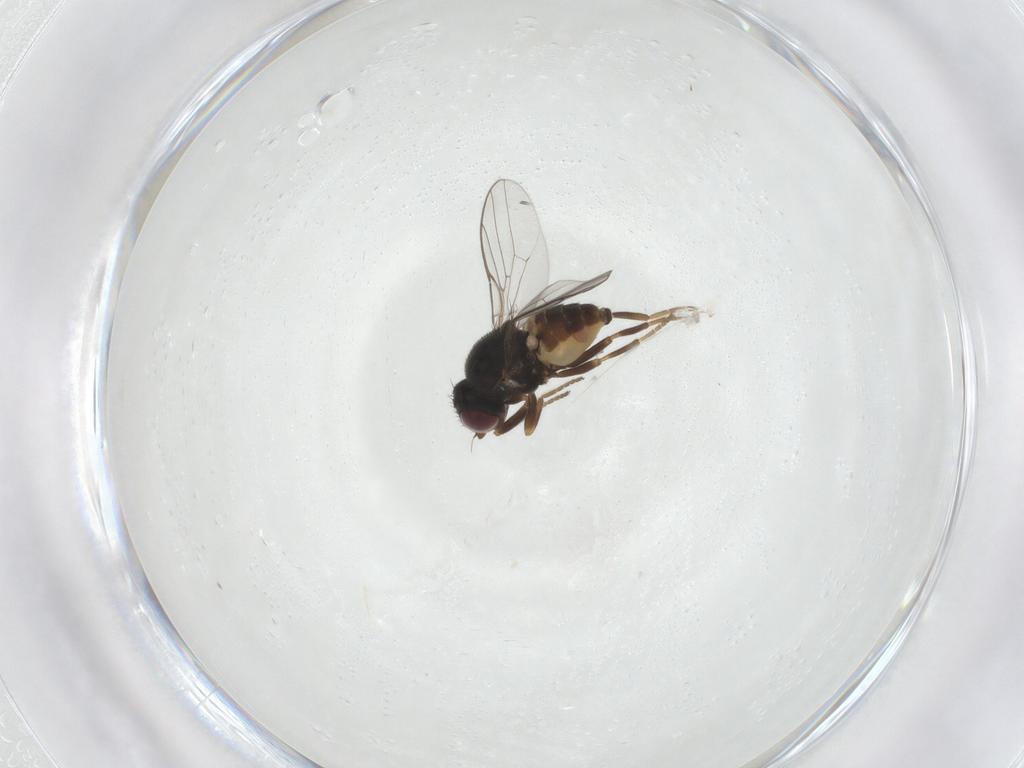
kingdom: Animalia
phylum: Arthropoda
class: Insecta
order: Diptera
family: Chloropidae
